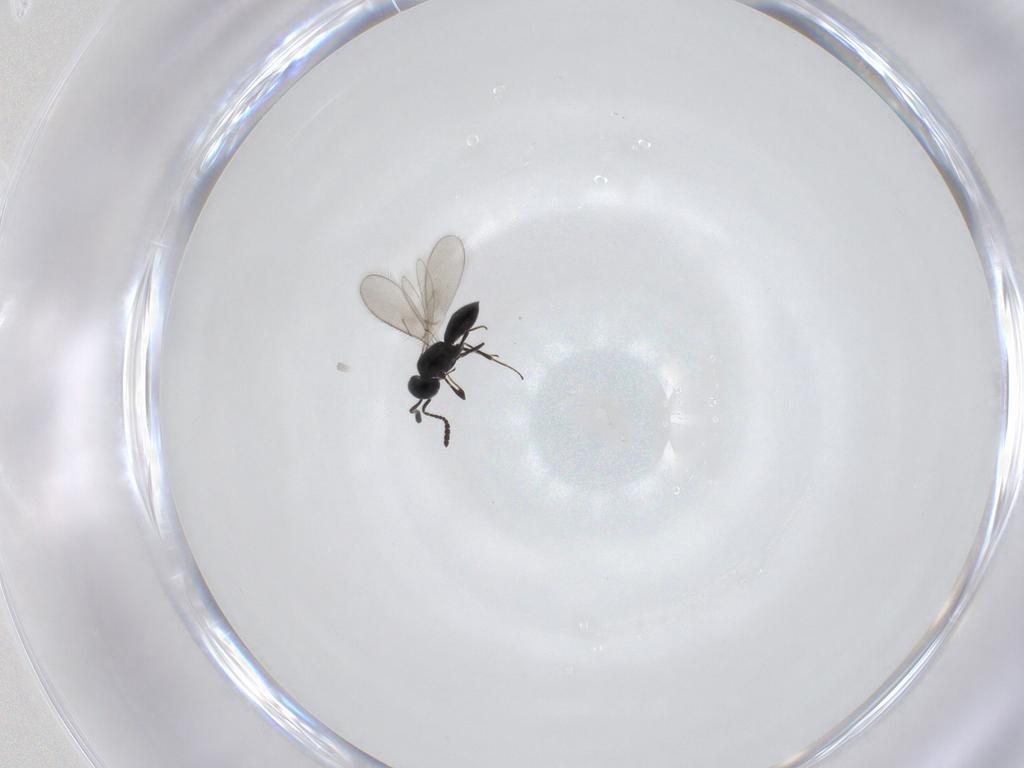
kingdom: Animalia
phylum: Arthropoda
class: Insecta
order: Hymenoptera
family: Scelionidae
